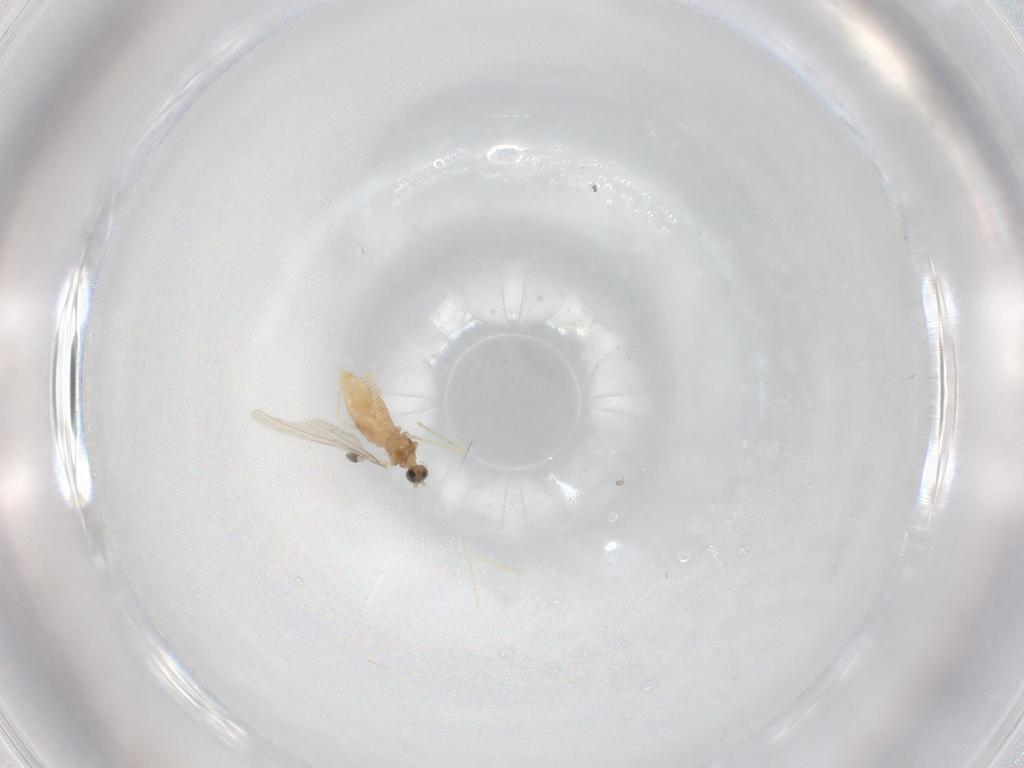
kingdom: Animalia
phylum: Arthropoda
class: Insecta
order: Diptera
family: Cecidomyiidae
